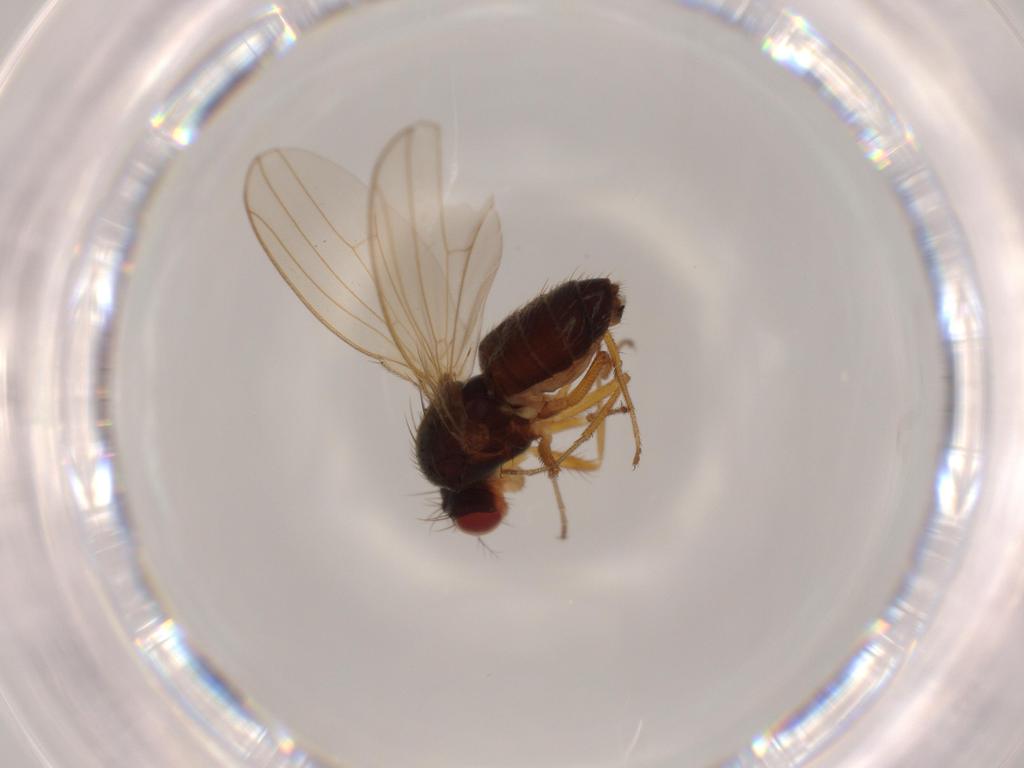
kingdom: Animalia
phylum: Arthropoda
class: Insecta
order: Diptera
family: Drosophilidae
